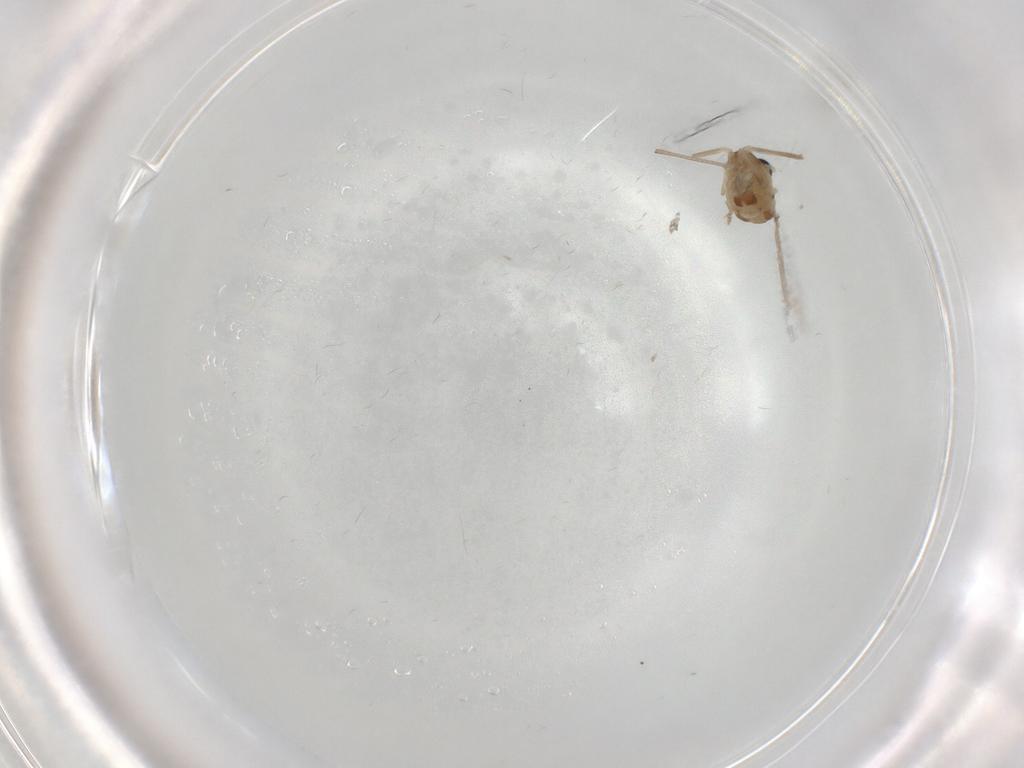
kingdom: Animalia
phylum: Arthropoda
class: Insecta
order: Diptera
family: Chironomidae
